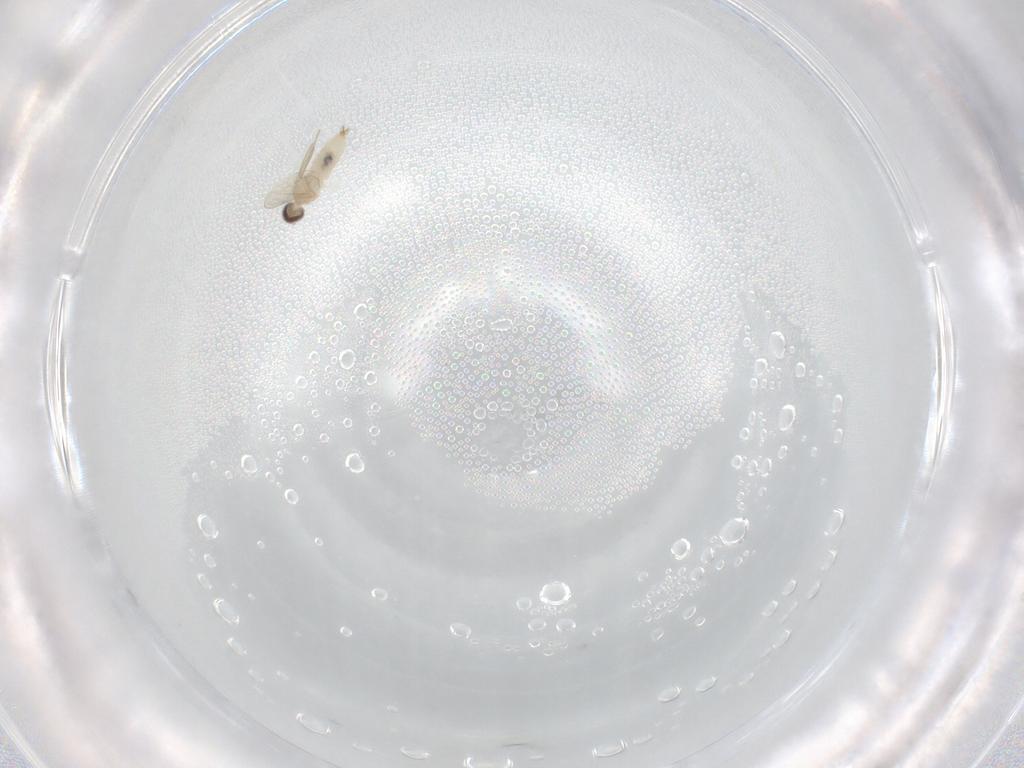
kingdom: Animalia
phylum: Arthropoda
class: Insecta
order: Diptera
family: Cecidomyiidae
